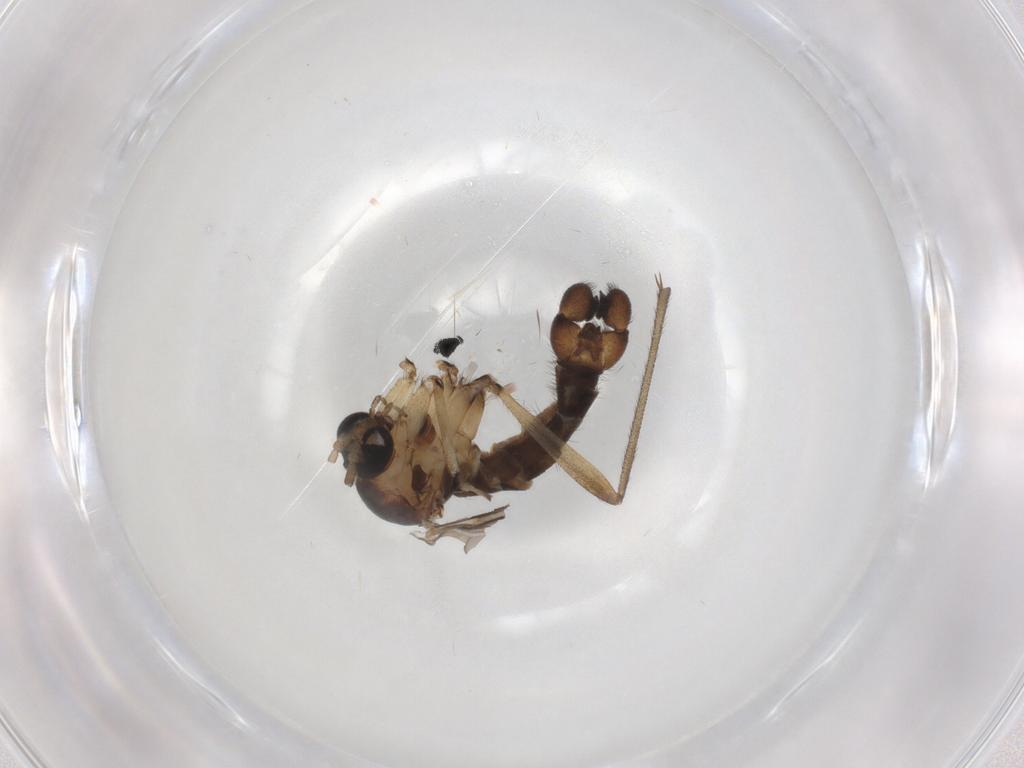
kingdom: Animalia
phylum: Arthropoda
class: Insecta
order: Diptera
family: Sciaridae
